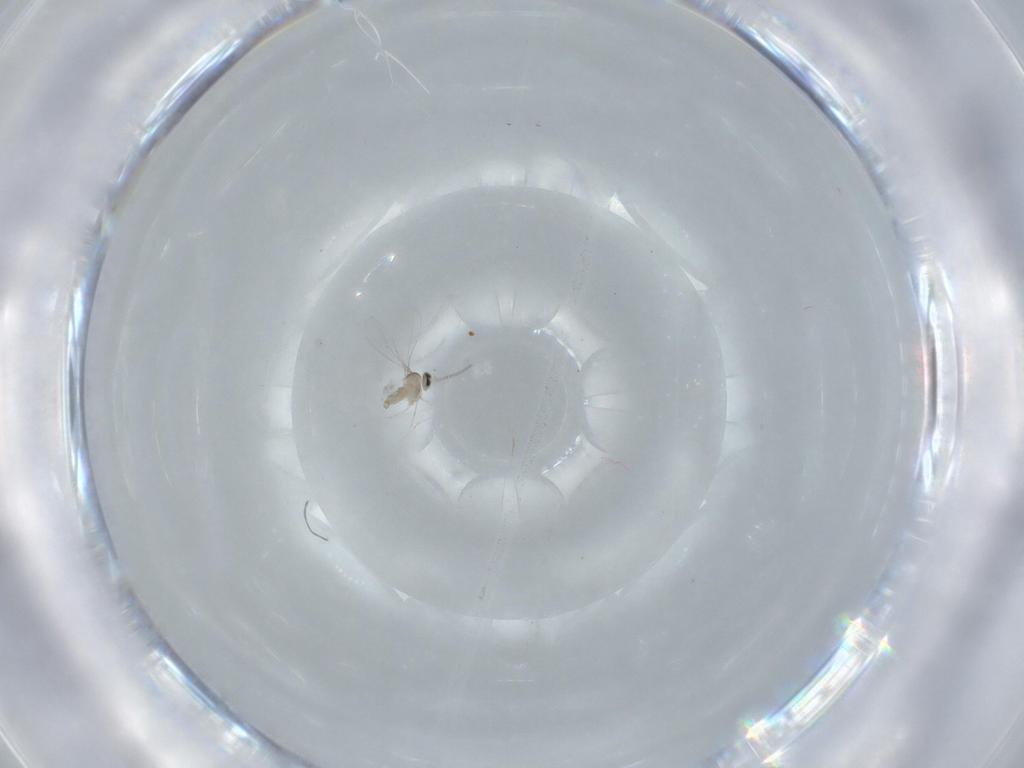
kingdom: Animalia
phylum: Arthropoda
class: Insecta
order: Diptera
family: Cecidomyiidae
